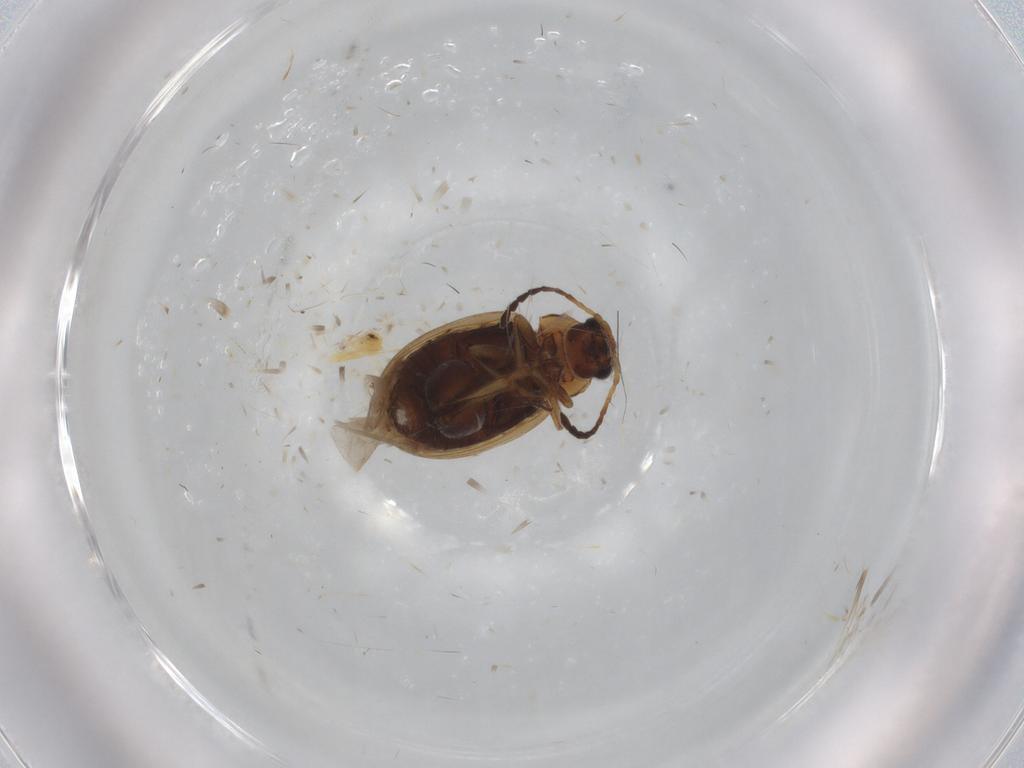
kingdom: Animalia
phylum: Arthropoda
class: Insecta
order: Coleoptera
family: Chrysomelidae
